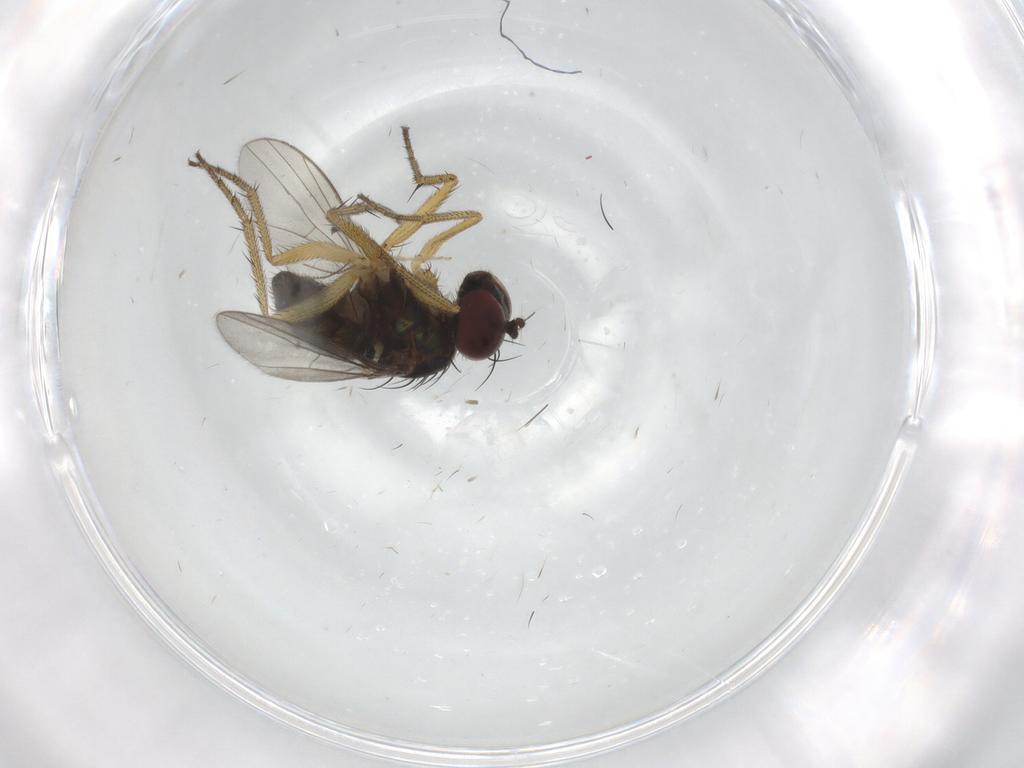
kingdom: Animalia
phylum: Arthropoda
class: Insecta
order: Diptera
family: Dolichopodidae
